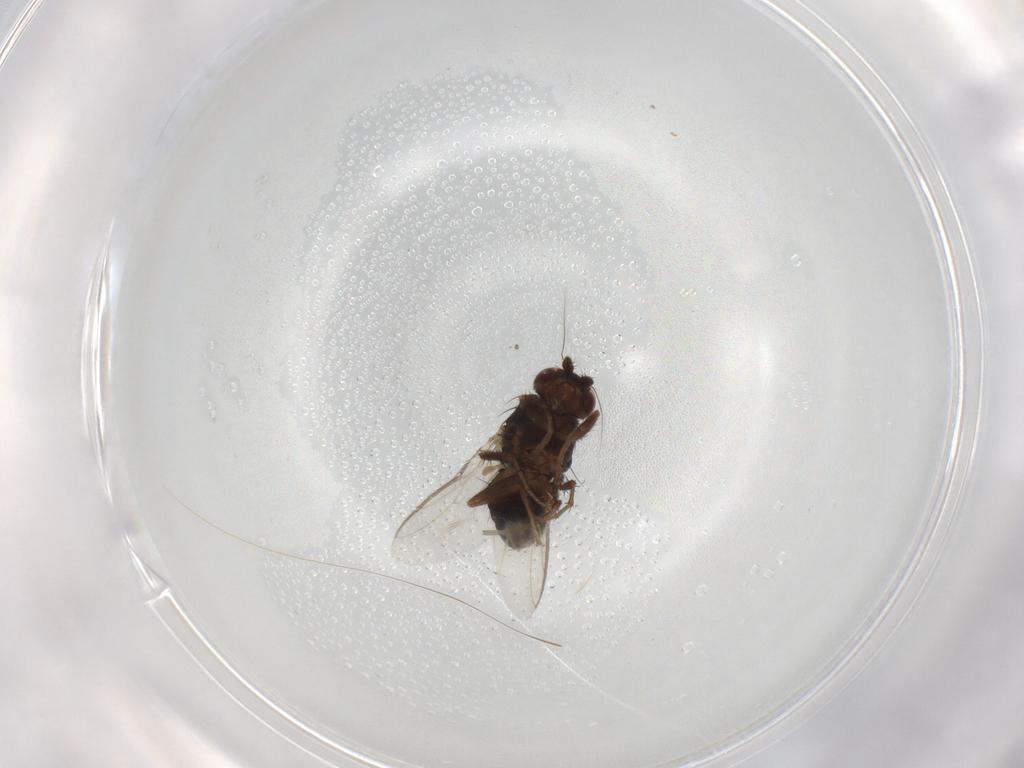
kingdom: Animalia
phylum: Arthropoda
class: Insecta
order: Diptera
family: Sphaeroceridae
